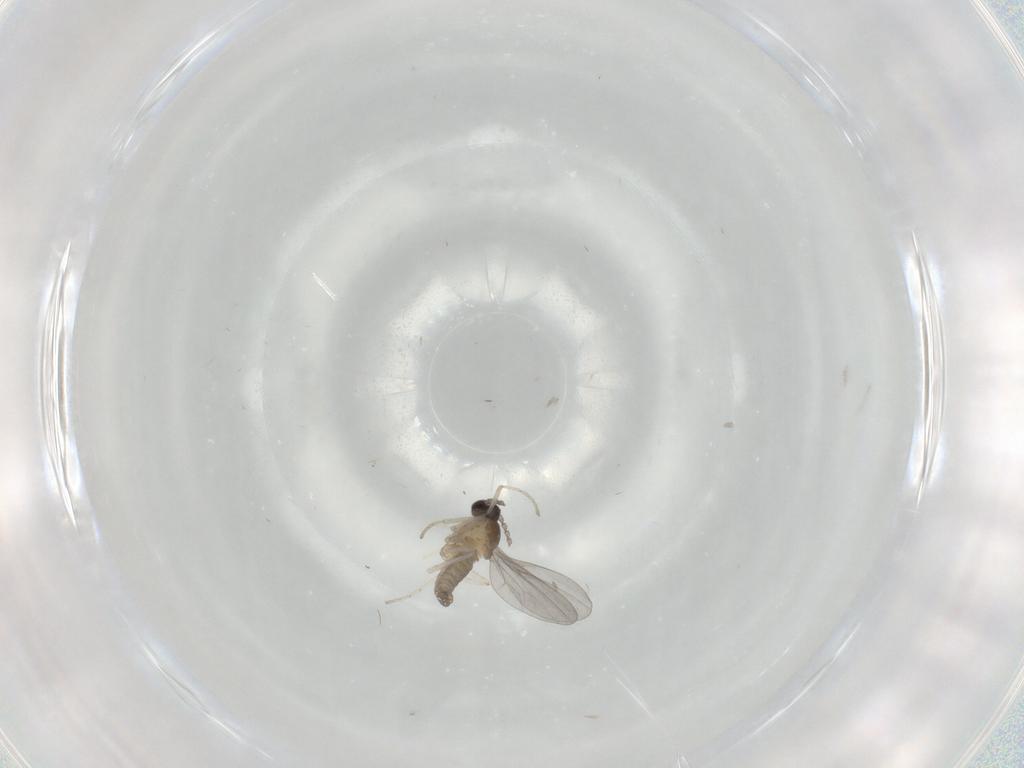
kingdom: Animalia
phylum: Arthropoda
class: Insecta
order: Diptera
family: Cecidomyiidae
